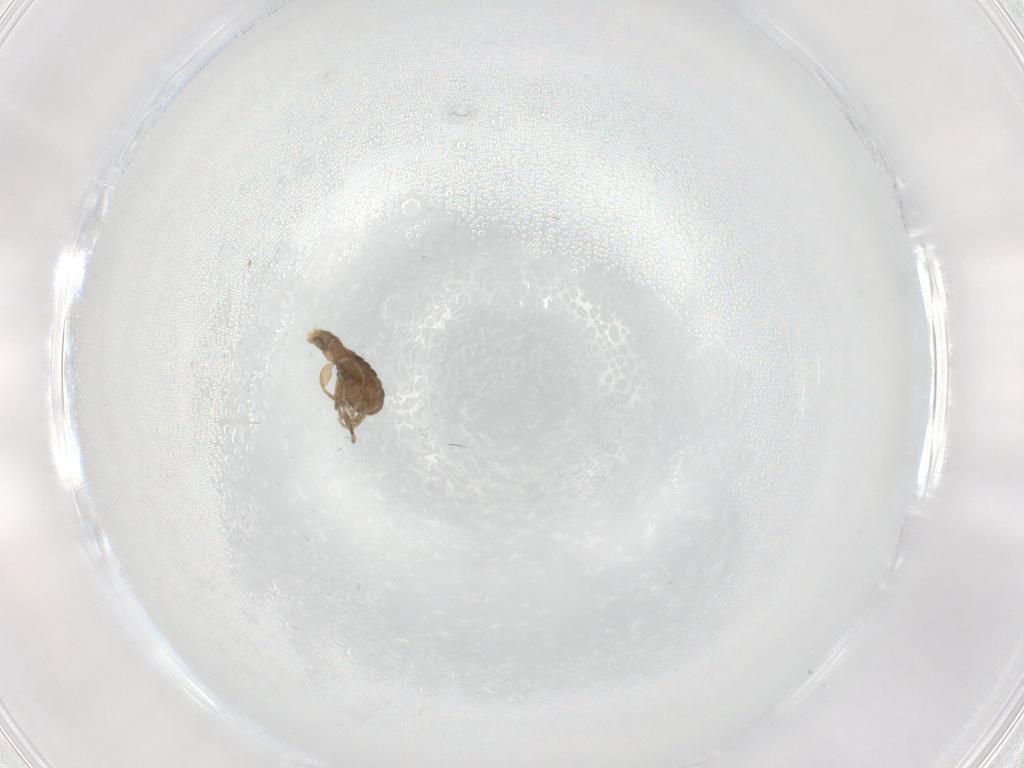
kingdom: Animalia
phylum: Arthropoda
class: Insecta
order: Diptera
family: Phoridae
